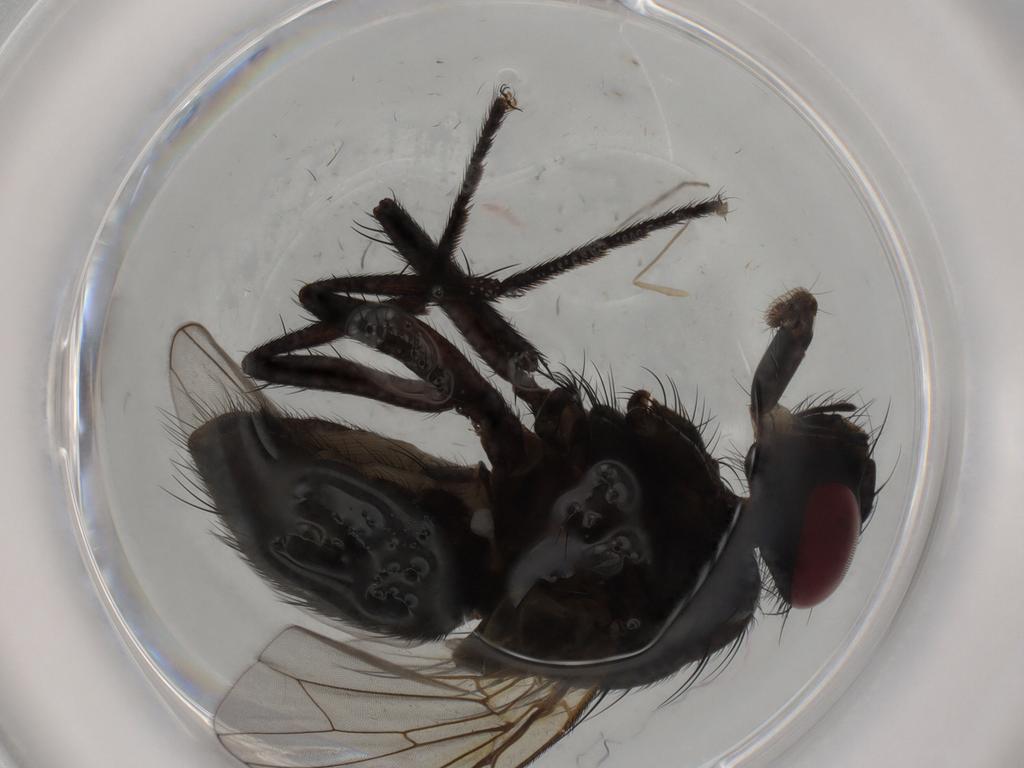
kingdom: Animalia
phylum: Arthropoda
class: Insecta
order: Diptera
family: Muscidae
